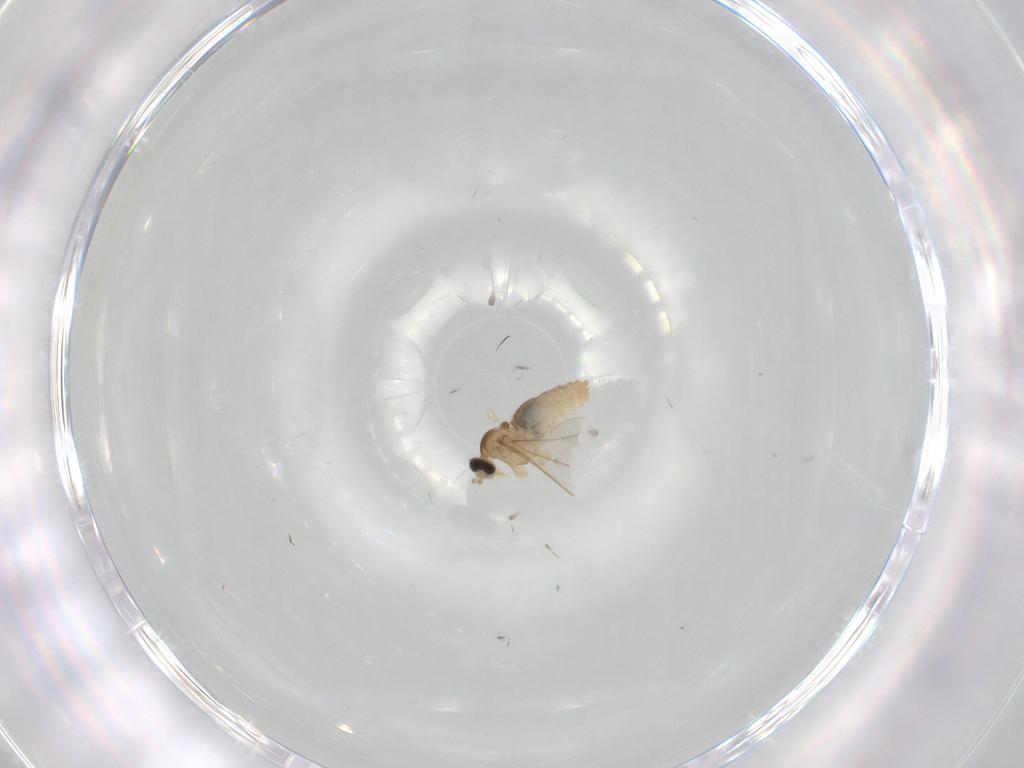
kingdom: Animalia
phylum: Arthropoda
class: Insecta
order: Diptera
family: Cecidomyiidae
